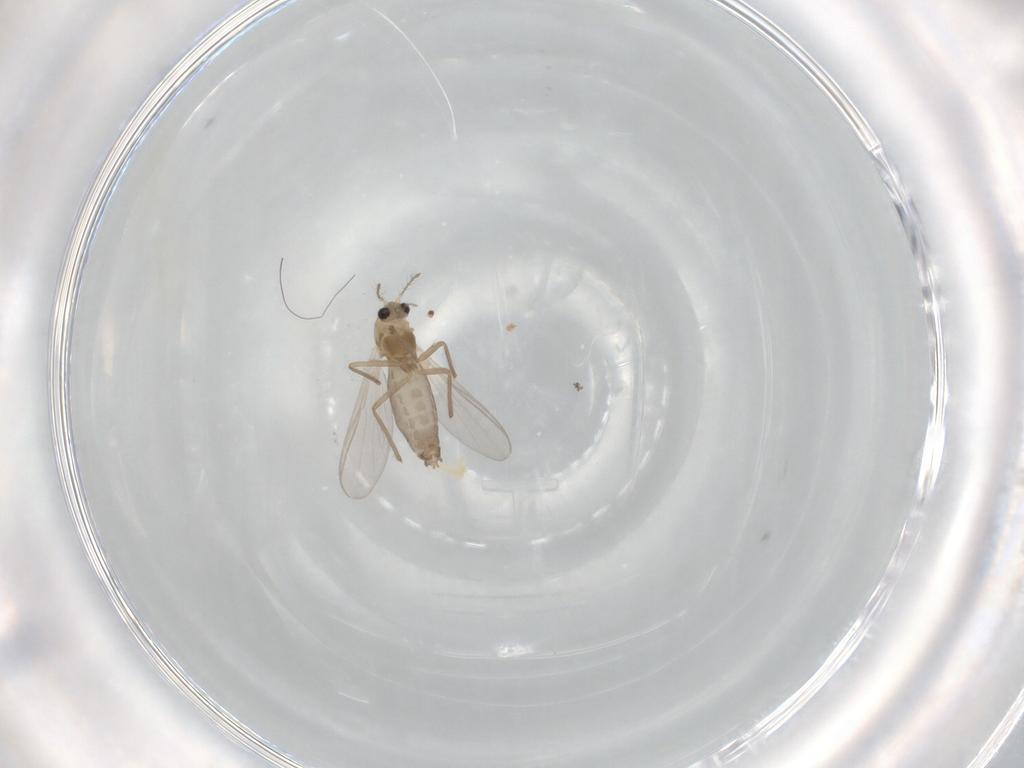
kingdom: Animalia
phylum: Arthropoda
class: Insecta
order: Diptera
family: Chironomidae
